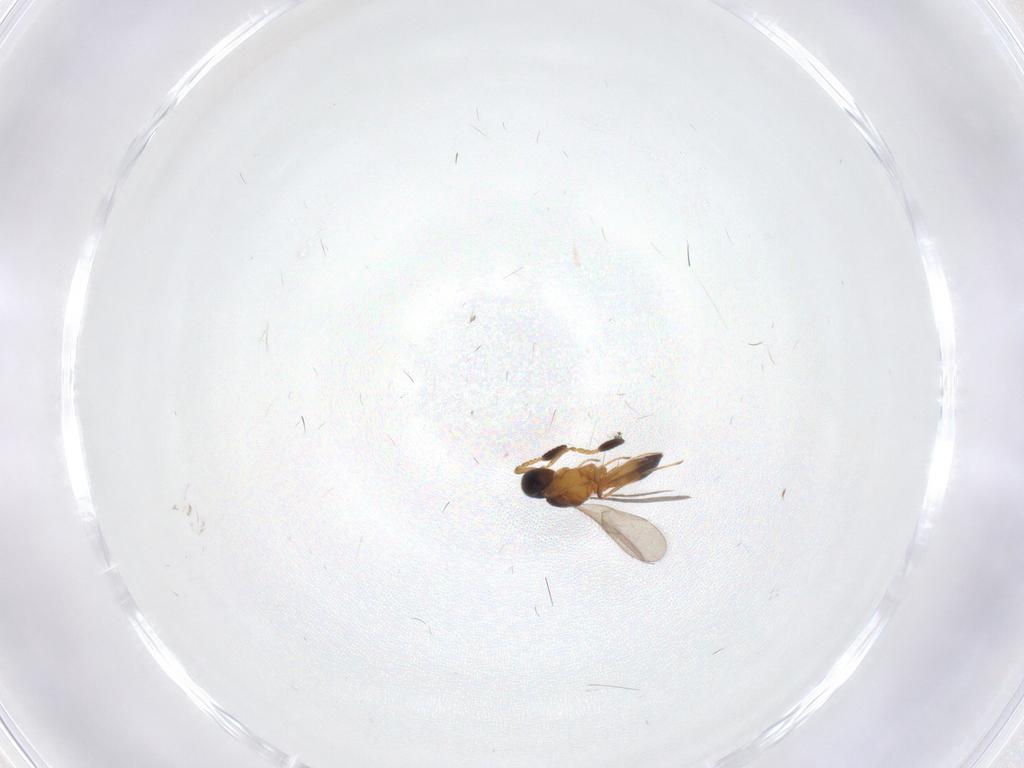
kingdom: Animalia
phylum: Arthropoda
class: Insecta
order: Hymenoptera
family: Scelionidae
